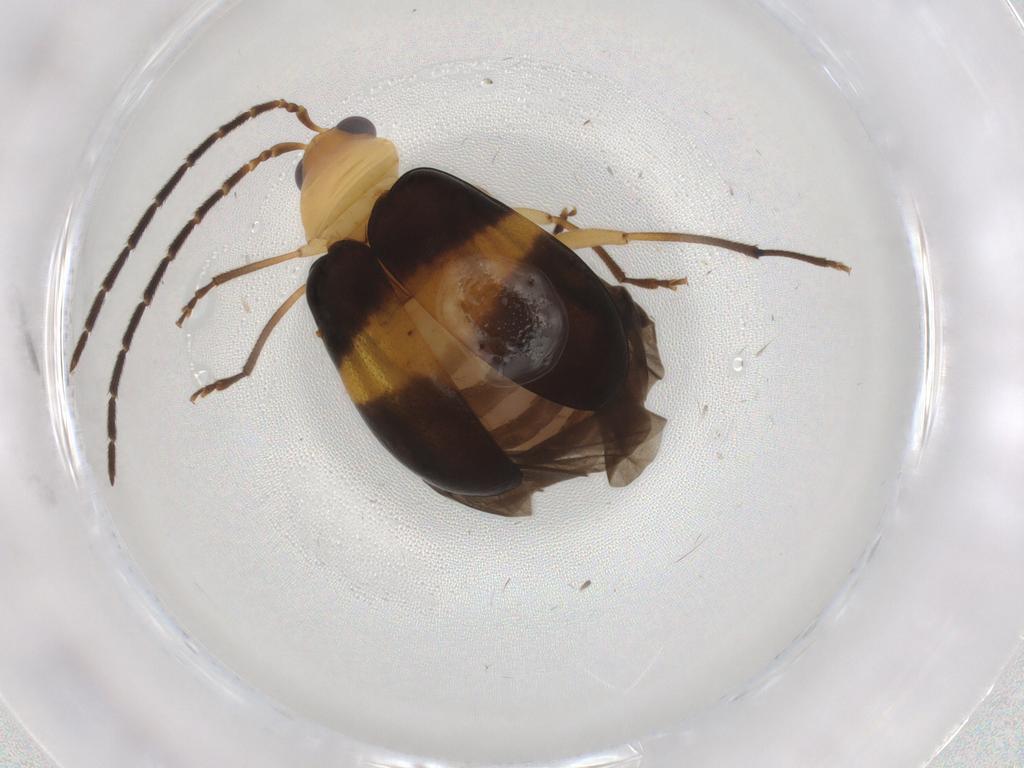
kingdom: Animalia
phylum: Arthropoda
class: Insecta
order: Coleoptera
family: Chrysomelidae
